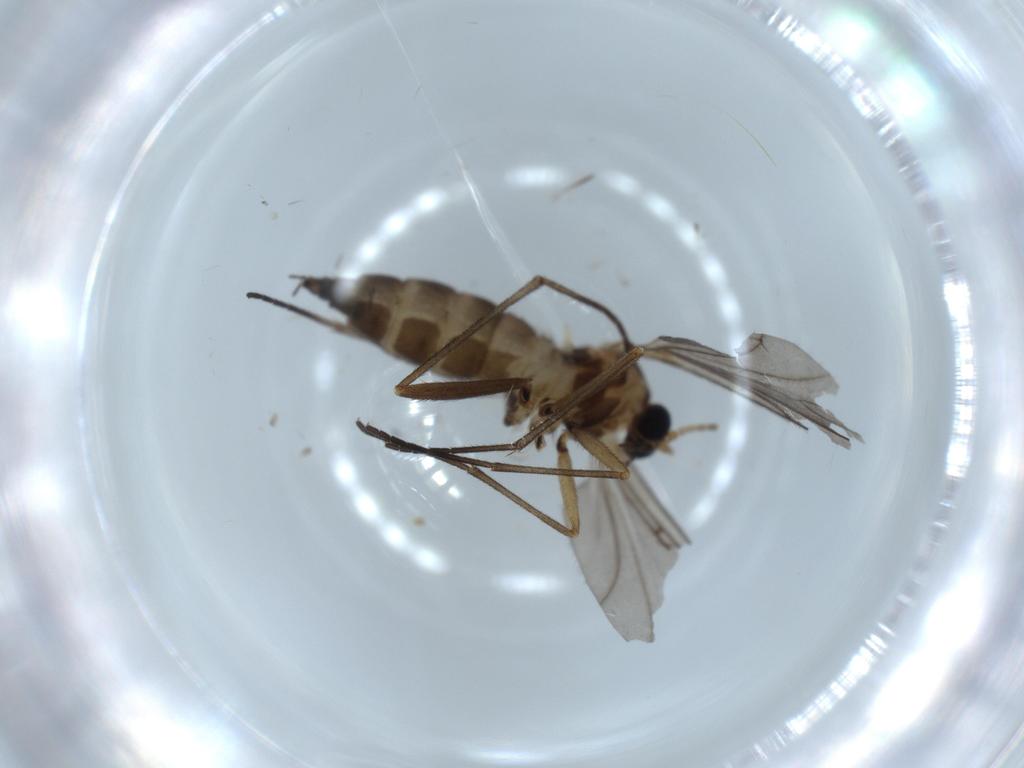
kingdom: Animalia
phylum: Arthropoda
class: Insecta
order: Diptera
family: Sciaridae
